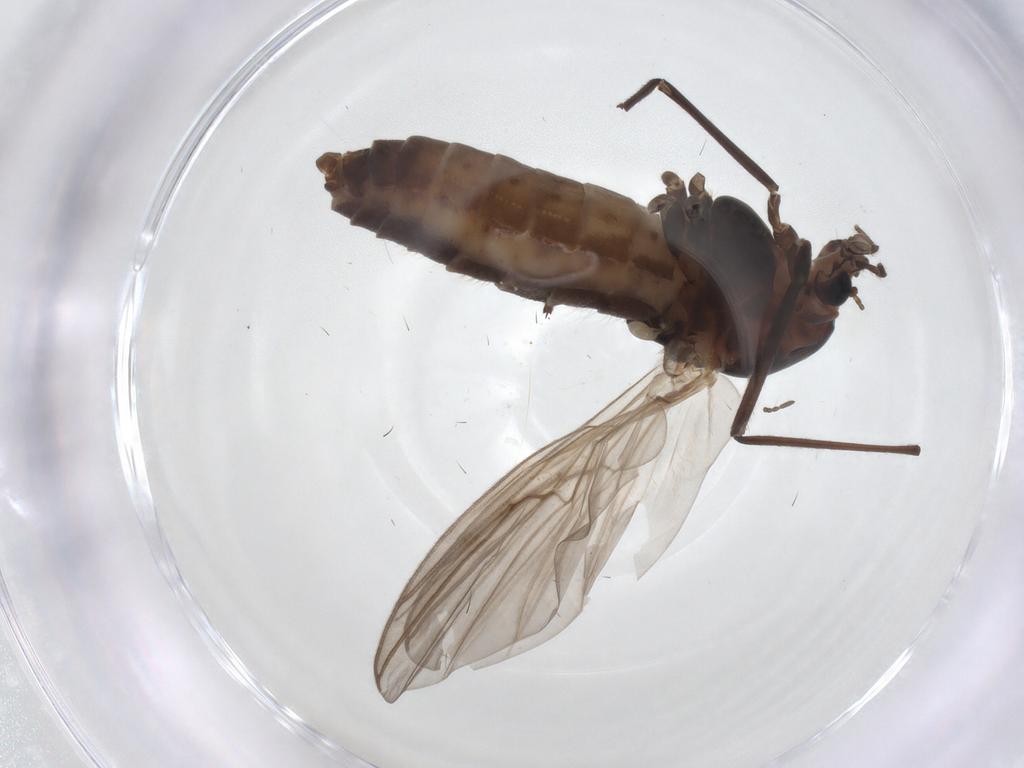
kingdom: Animalia
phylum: Arthropoda
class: Insecta
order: Diptera
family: Chironomidae
